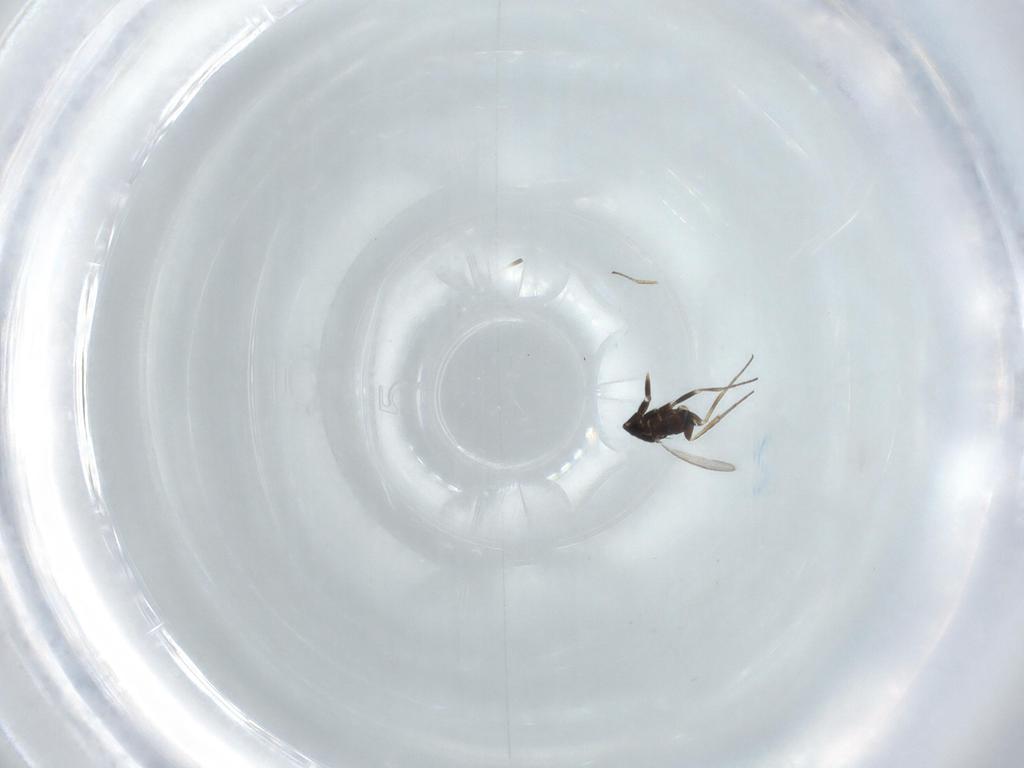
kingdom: Animalia
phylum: Arthropoda
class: Insecta
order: Hymenoptera
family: Eulophidae
